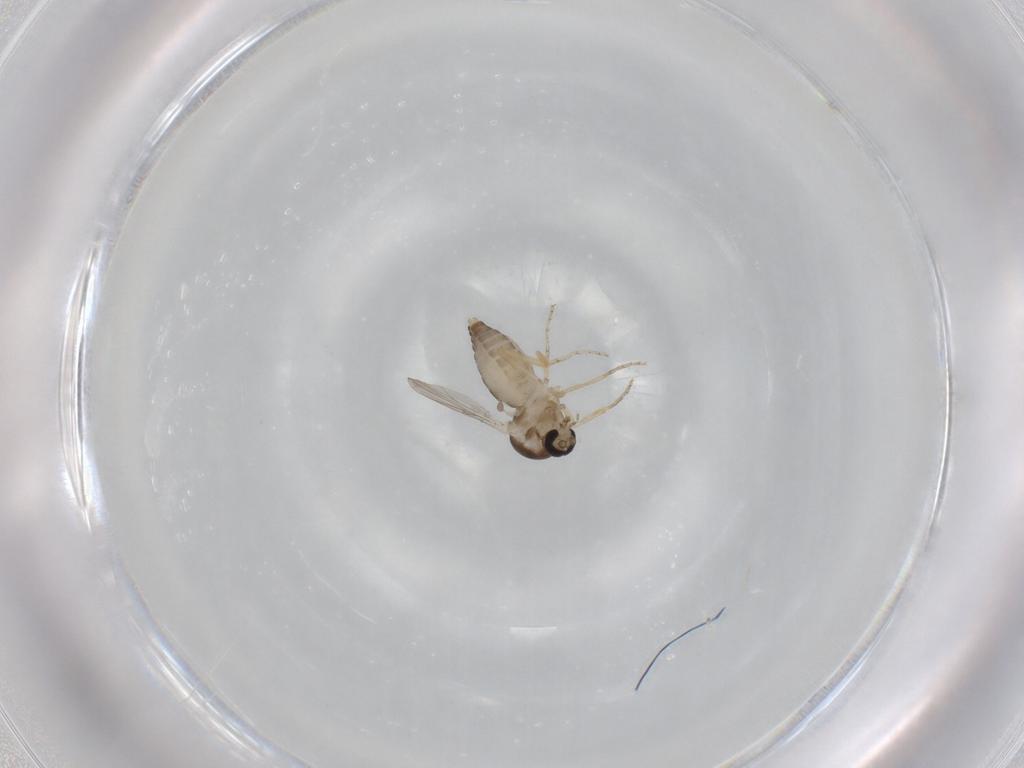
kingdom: Animalia
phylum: Arthropoda
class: Insecta
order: Diptera
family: Ceratopogonidae
